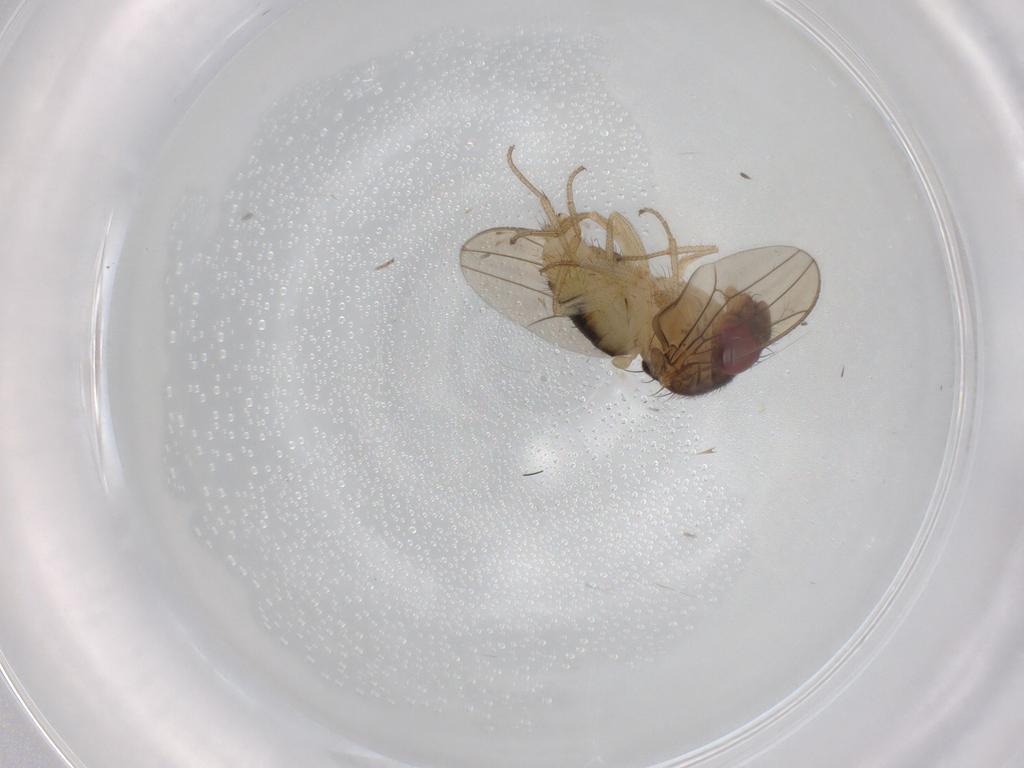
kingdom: Animalia
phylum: Arthropoda
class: Insecta
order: Diptera
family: Drosophilidae
